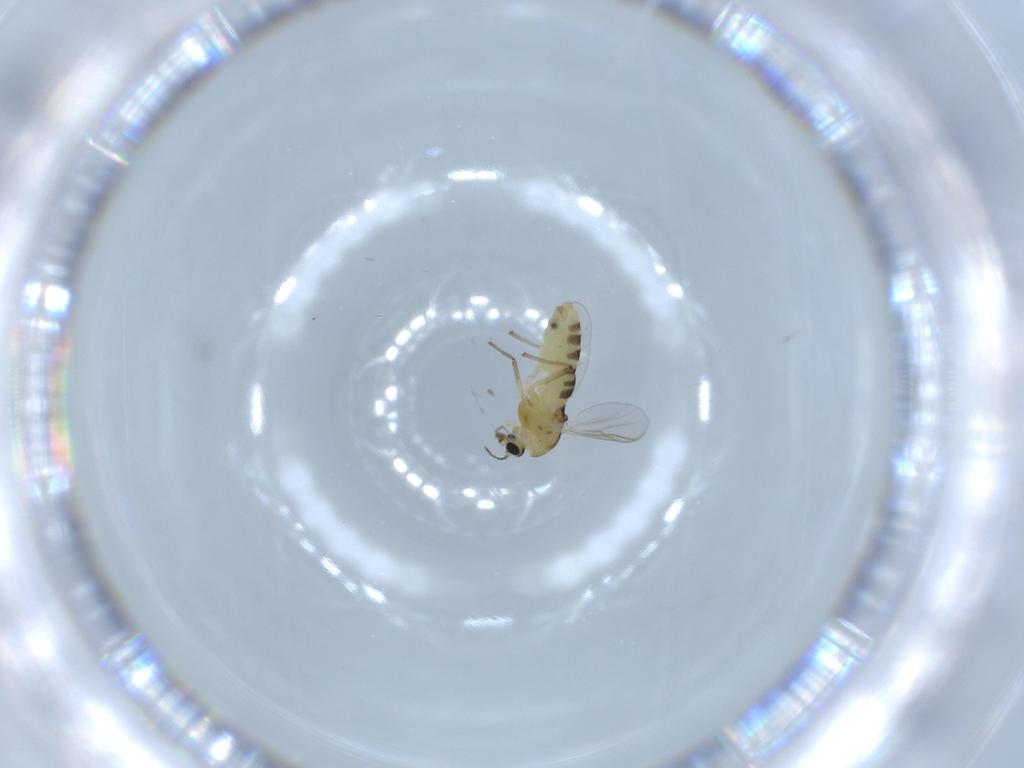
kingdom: Animalia
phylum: Arthropoda
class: Insecta
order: Diptera
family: Chironomidae
